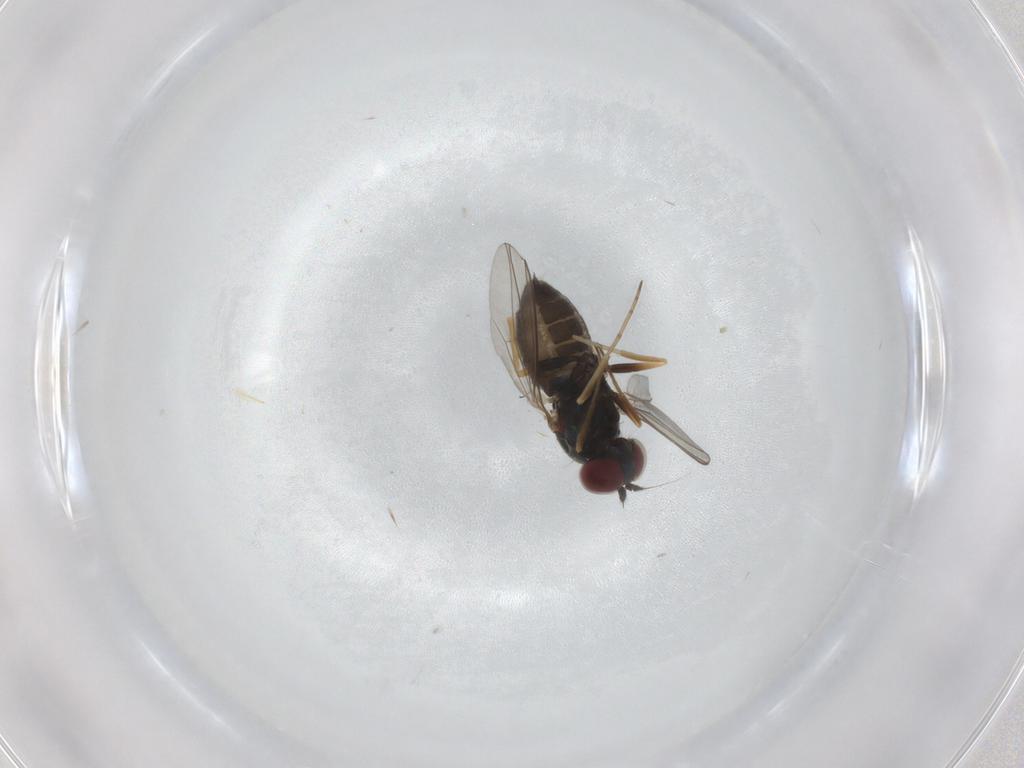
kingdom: Animalia
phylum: Arthropoda
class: Insecta
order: Diptera
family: Dolichopodidae
